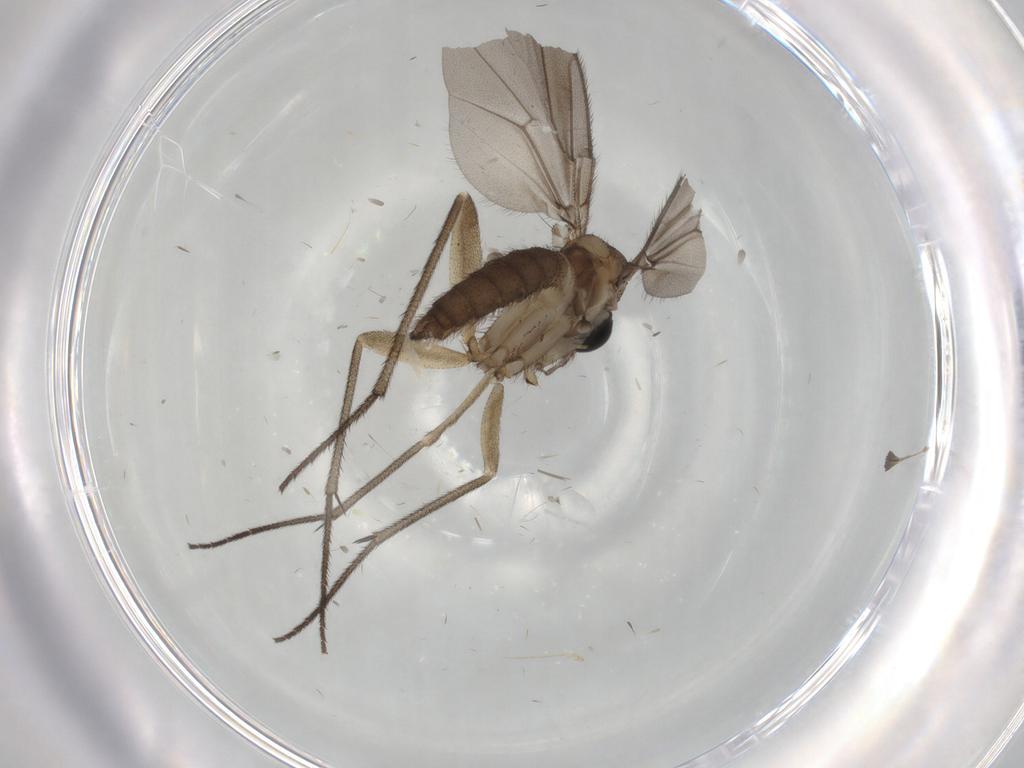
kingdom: Animalia
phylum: Arthropoda
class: Insecta
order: Diptera
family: Phoridae
